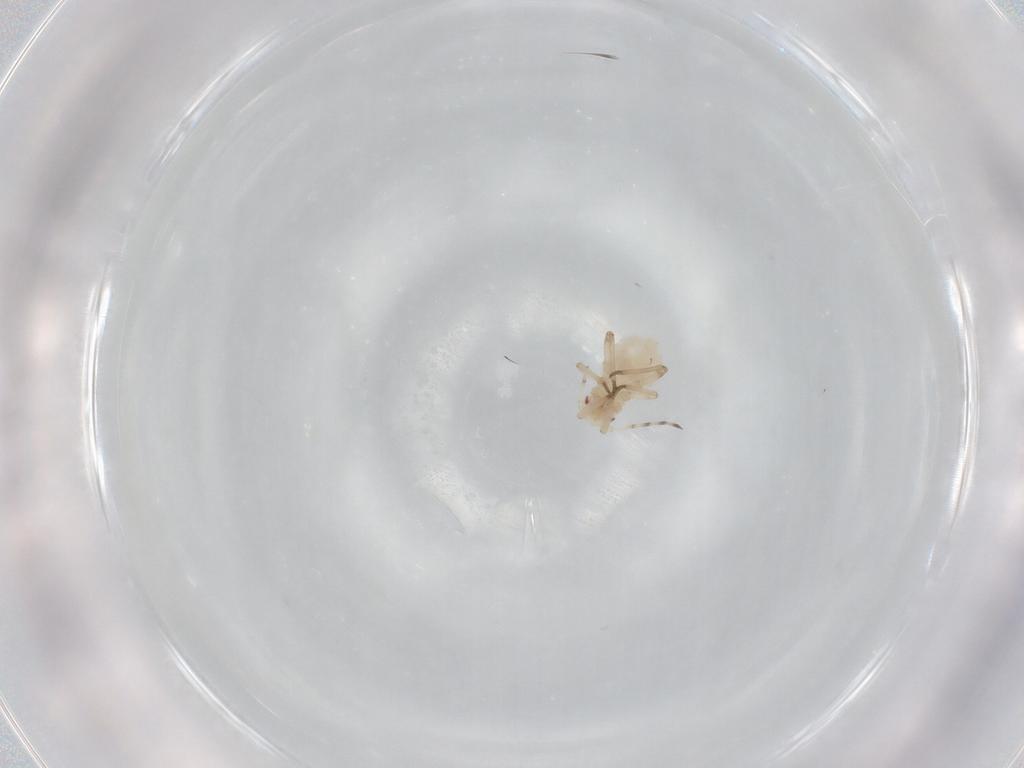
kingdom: Animalia
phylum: Arthropoda
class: Insecta
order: Hemiptera
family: Aphididae
